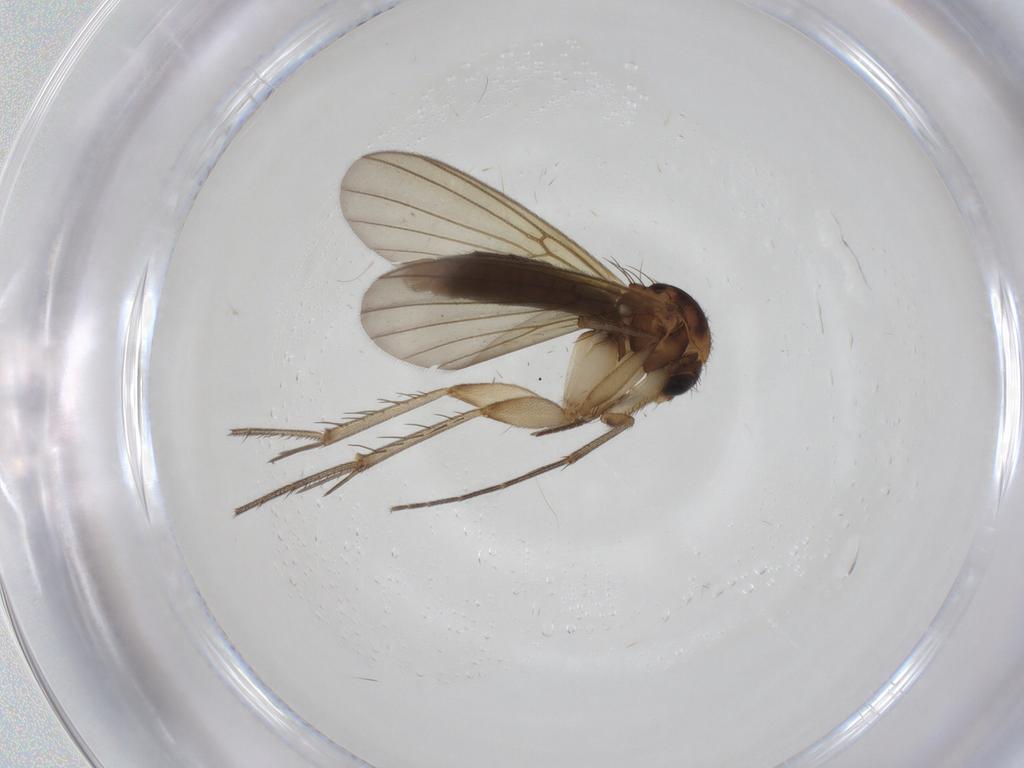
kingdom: Animalia
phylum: Arthropoda
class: Insecta
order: Diptera
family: Mycetophilidae
